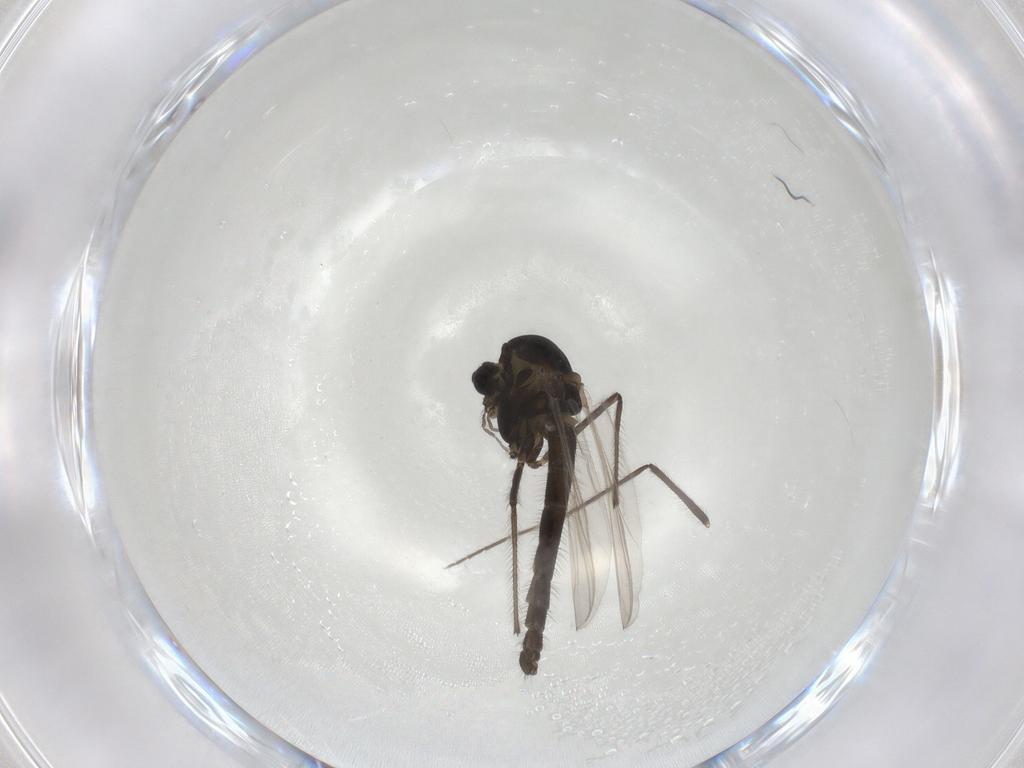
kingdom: Animalia
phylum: Arthropoda
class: Insecta
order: Diptera
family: Chironomidae
